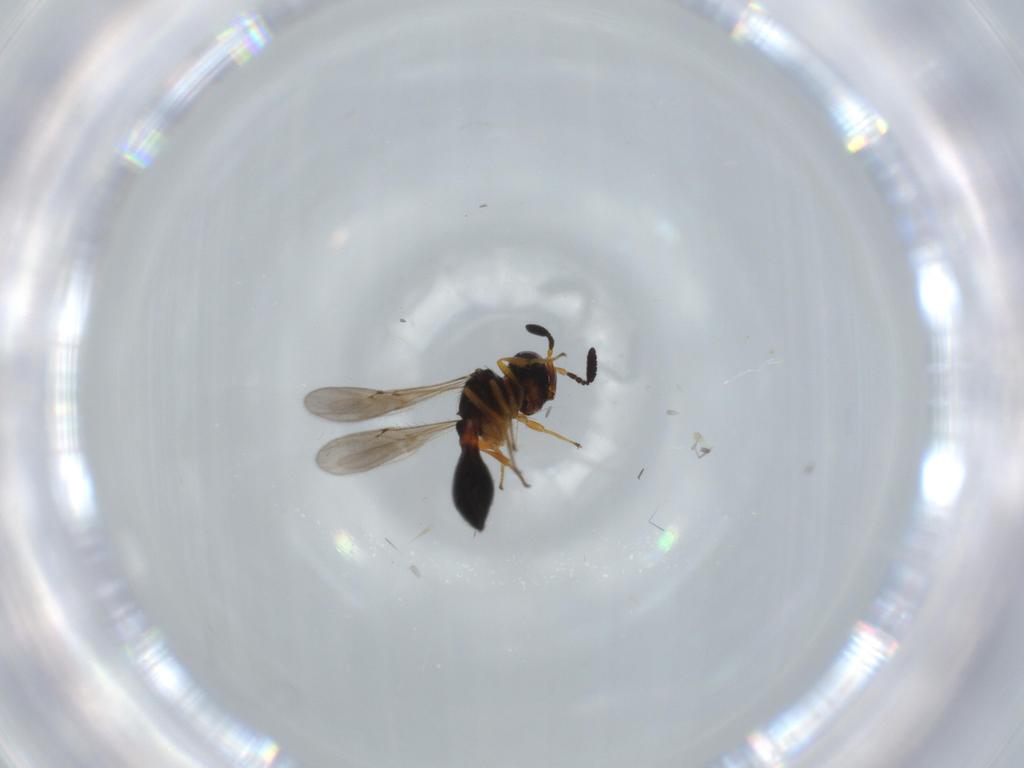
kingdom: Animalia
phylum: Arthropoda
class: Insecta
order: Hymenoptera
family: Scelionidae
